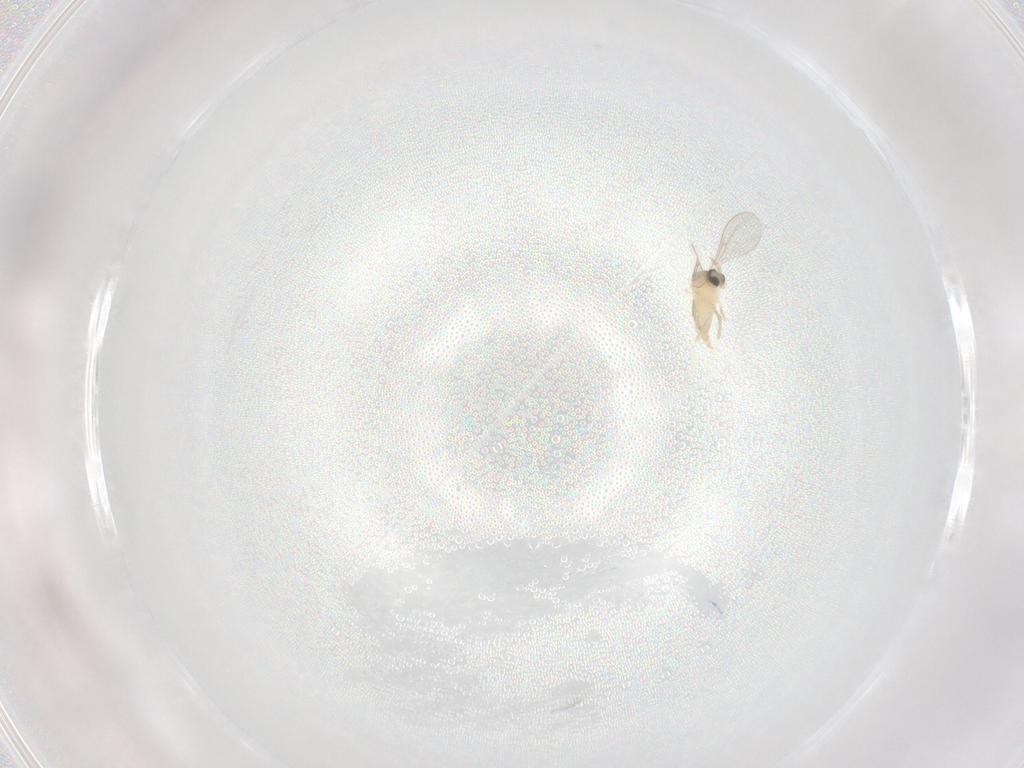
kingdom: Animalia
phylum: Arthropoda
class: Insecta
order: Diptera
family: Cecidomyiidae
